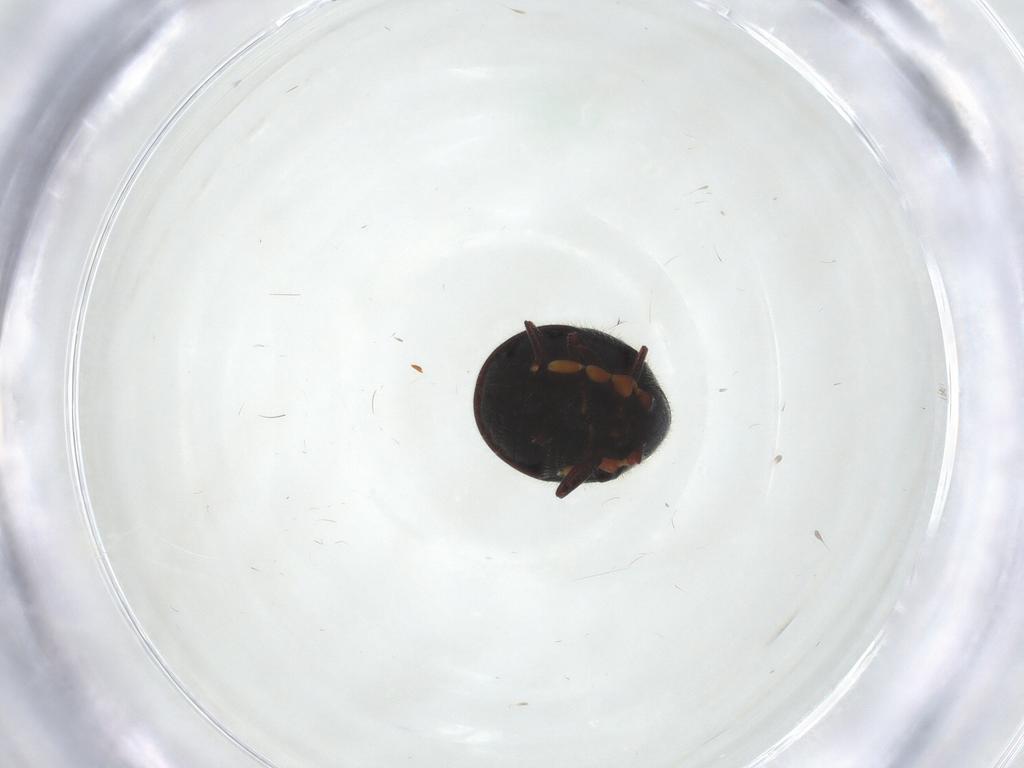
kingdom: Animalia
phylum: Arthropoda
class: Insecta
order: Coleoptera
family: Ptinidae
